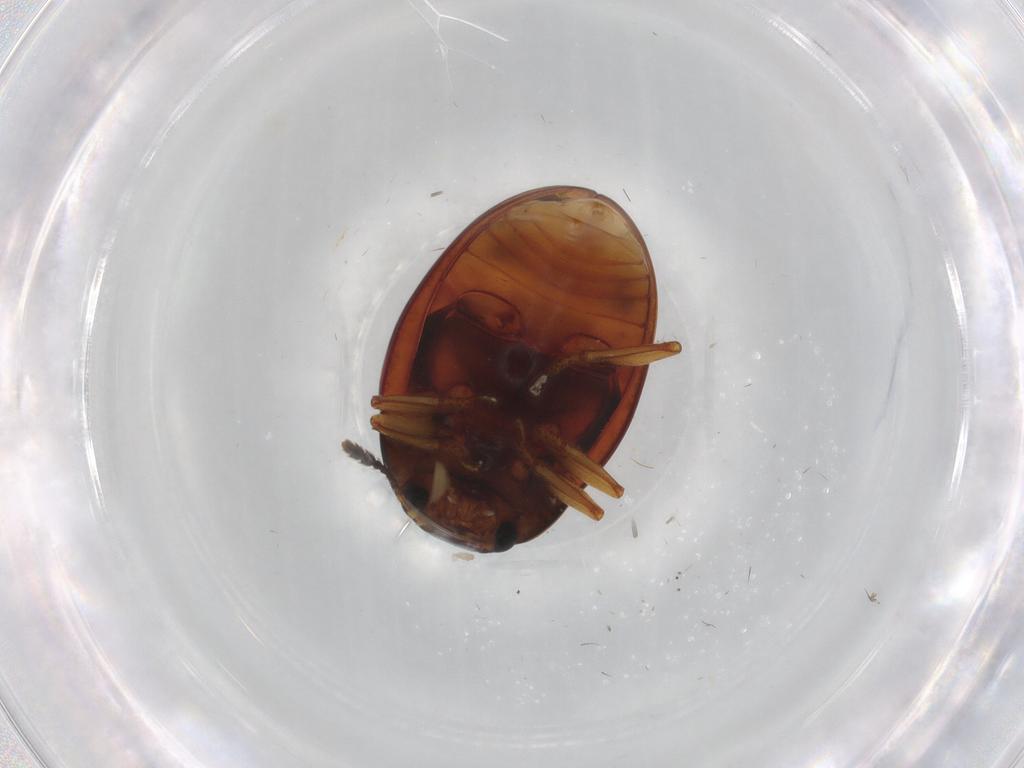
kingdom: Animalia
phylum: Arthropoda
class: Insecta
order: Coleoptera
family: Erotylidae
